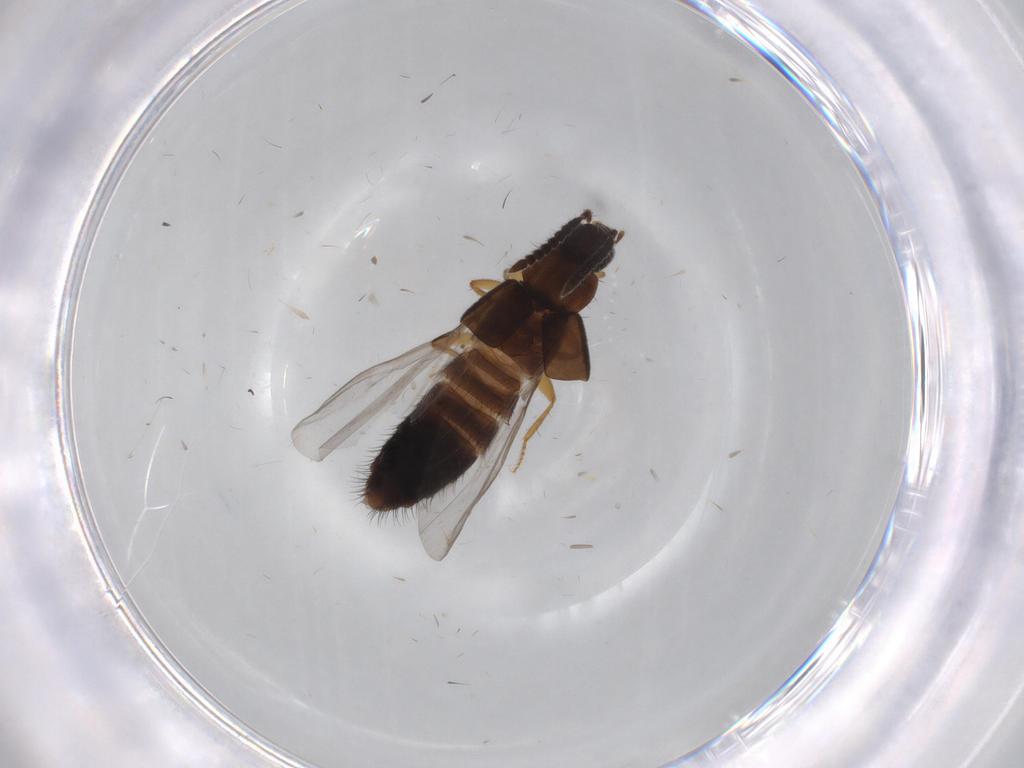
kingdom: Animalia
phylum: Arthropoda
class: Insecta
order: Coleoptera
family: Staphylinidae
